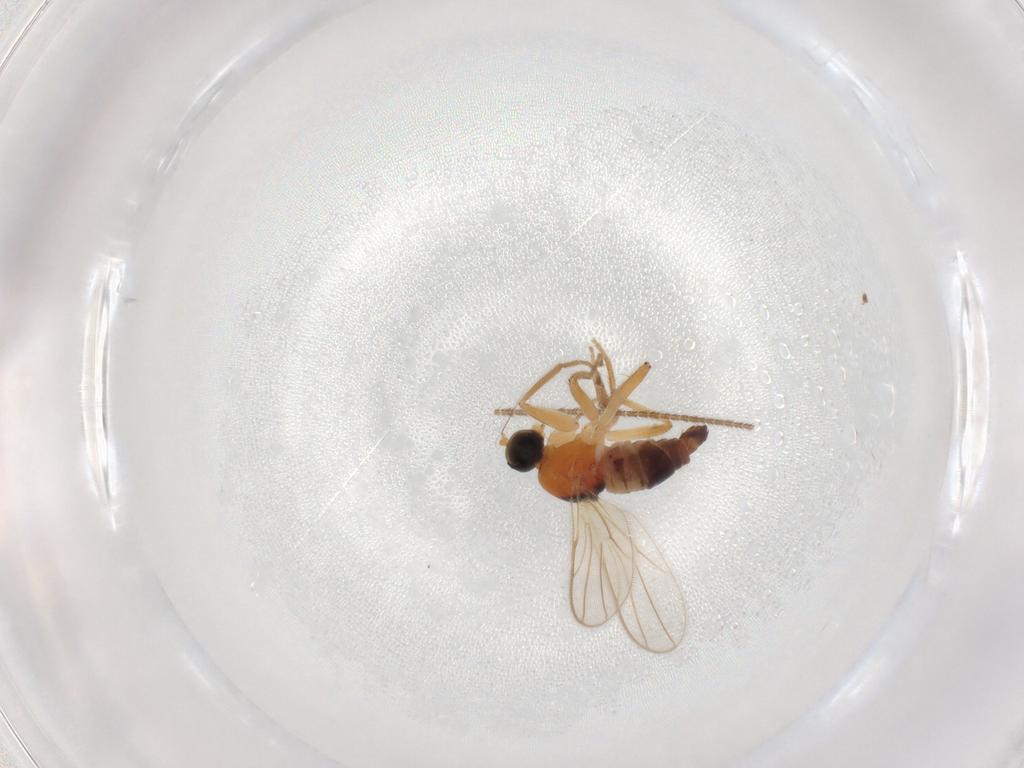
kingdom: Animalia
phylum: Arthropoda
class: Insecta
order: Diptera
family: Hybotidae
